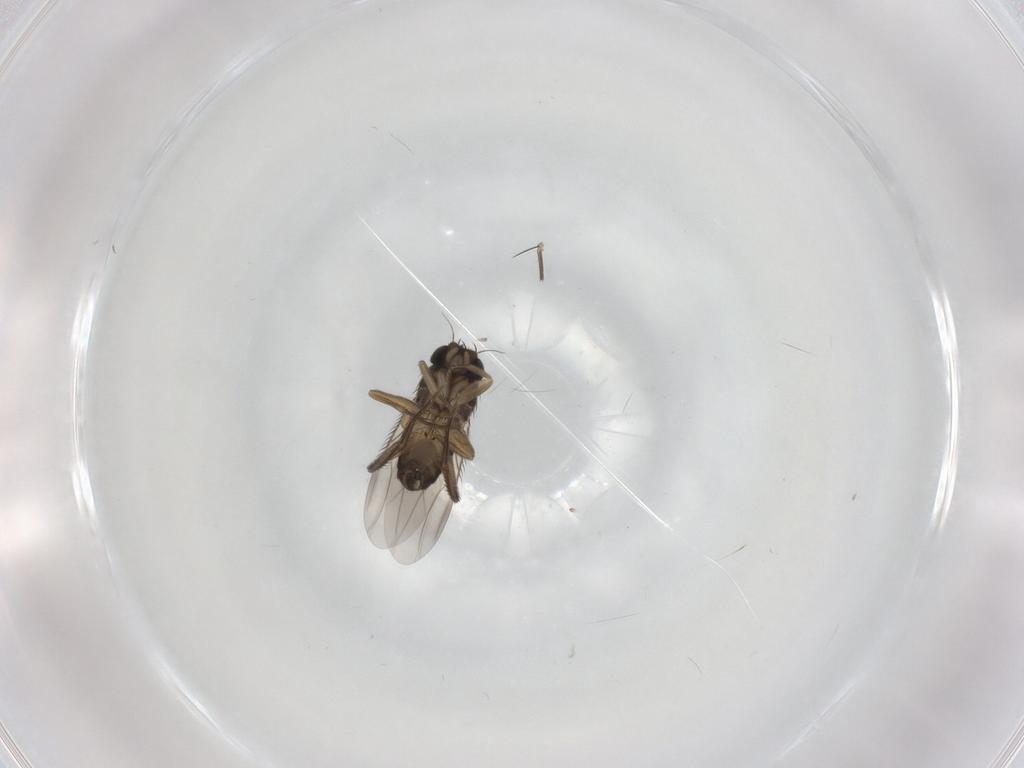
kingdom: Animalia
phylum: Arthropoda
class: Insecta
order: Diptera
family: Phoridae
